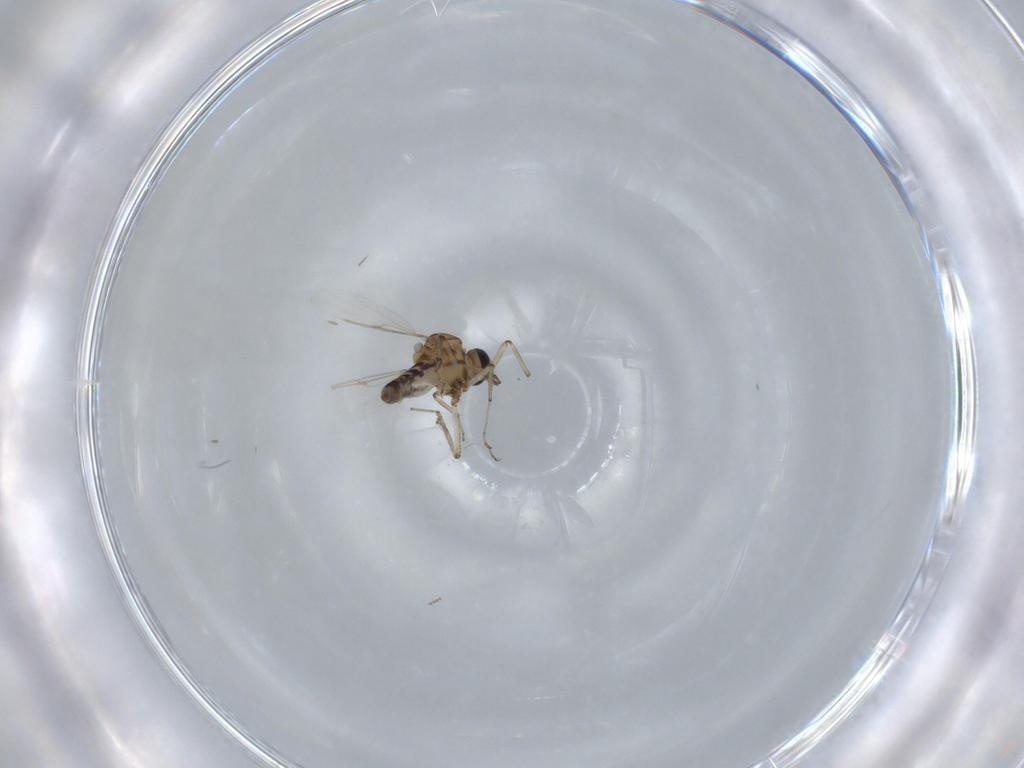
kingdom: Animalia
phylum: Arthropoda
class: Insecta
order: Diptera
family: Ceratopogonidae
